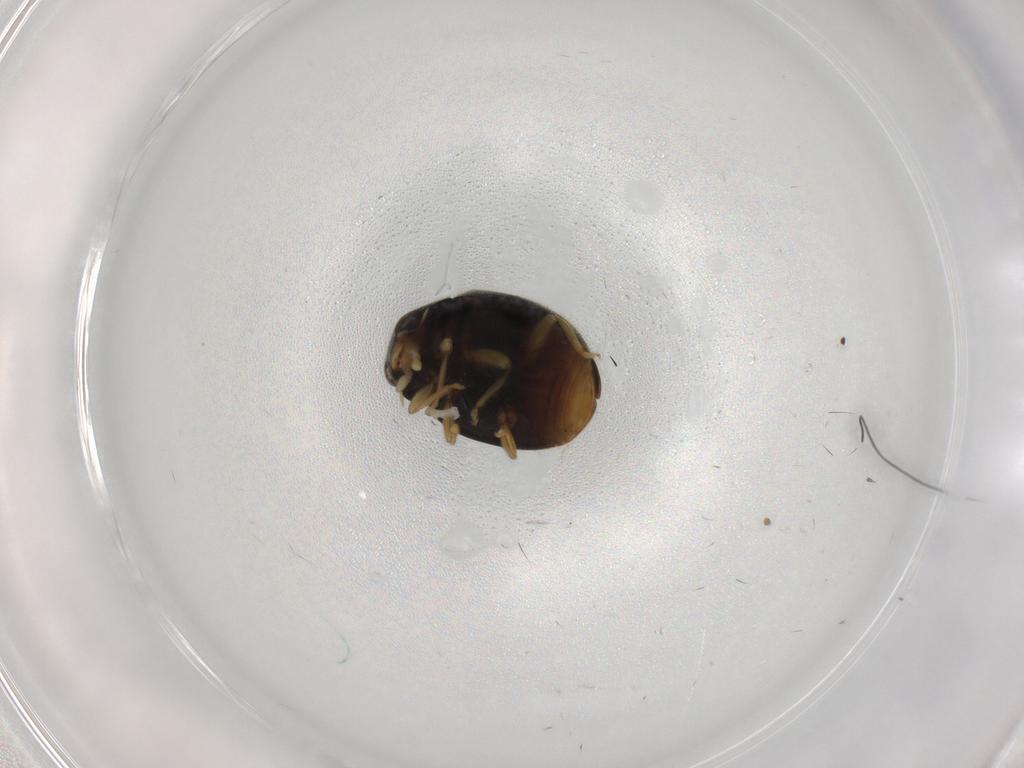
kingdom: Animalia
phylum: Arthropoda
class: Insecta
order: Coleoptera
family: Coccinellidae
